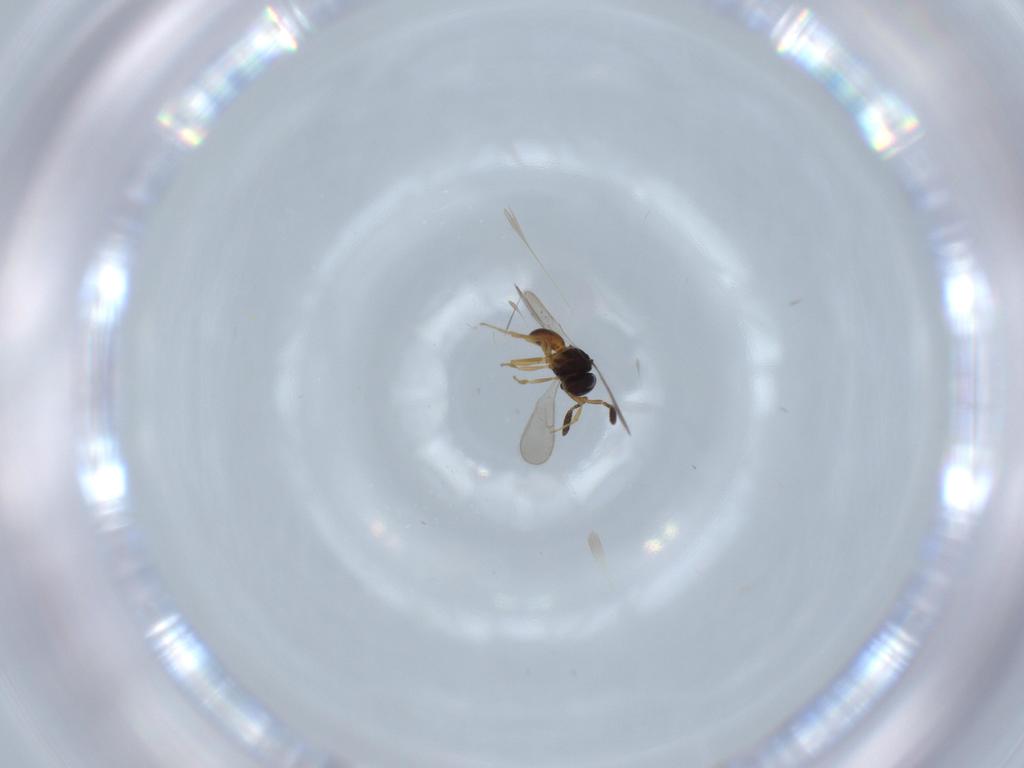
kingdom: Animalia
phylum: Arthropoda
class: Insecta
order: Hymenoptera
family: Scelionidae
